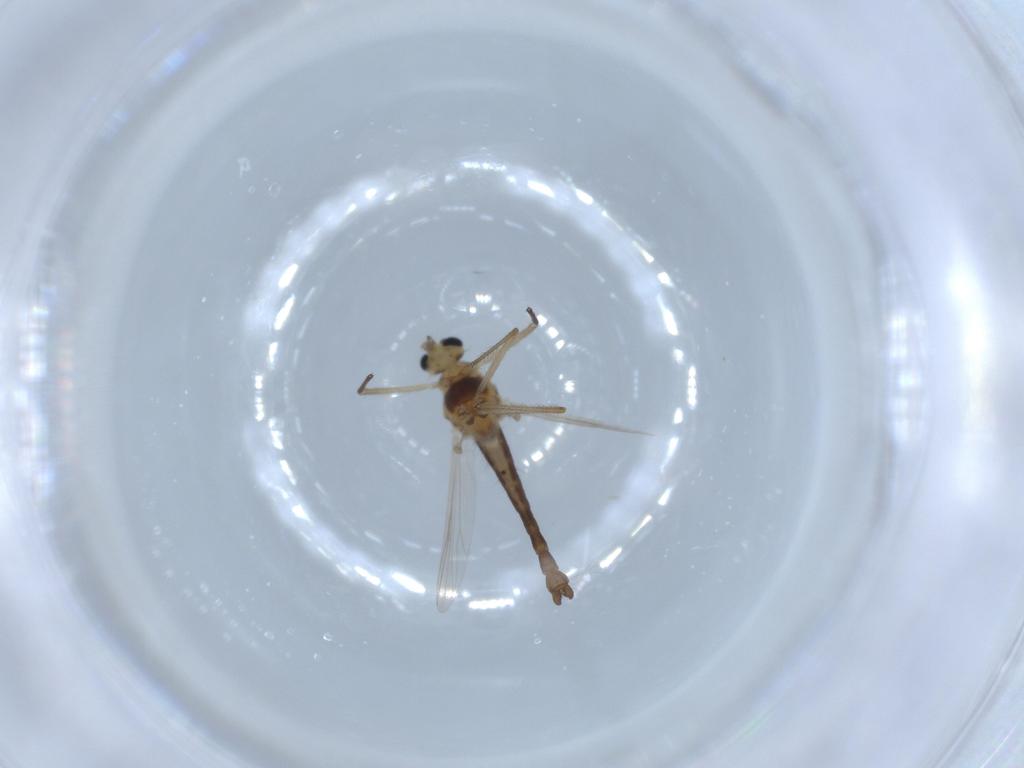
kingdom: Animalia
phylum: Arthropoda
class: Insecta
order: Diptera
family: Chironomidae
